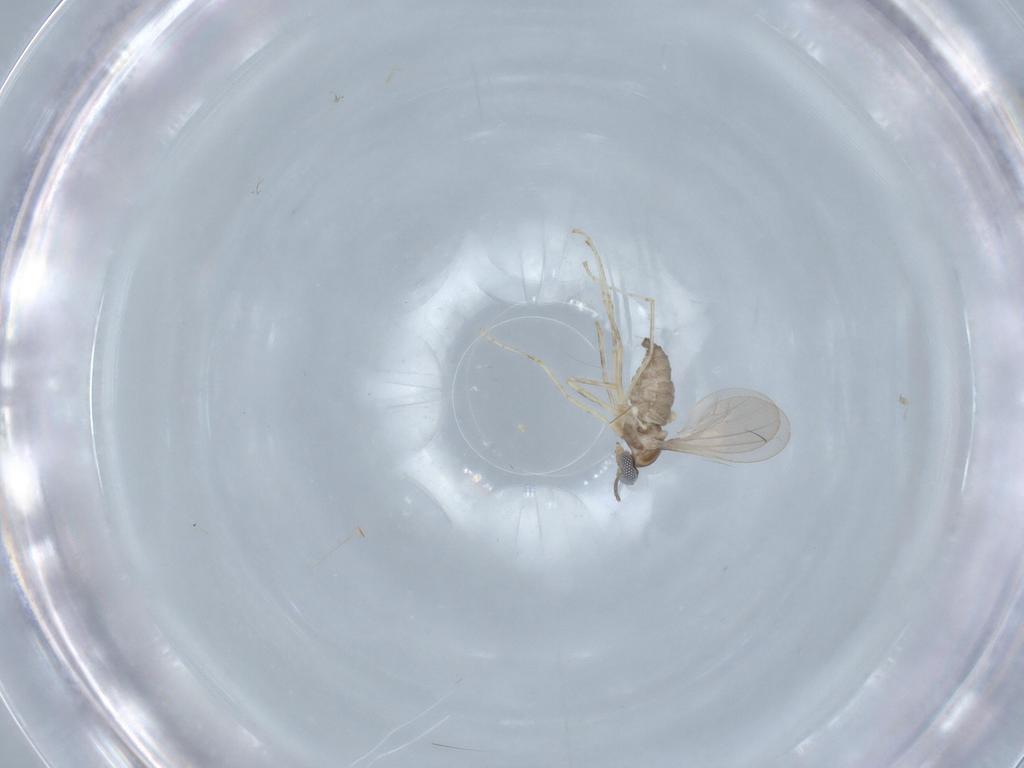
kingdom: Animalia
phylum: Arthropoda
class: Insecta
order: Diptera
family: Cecidomyiidae
